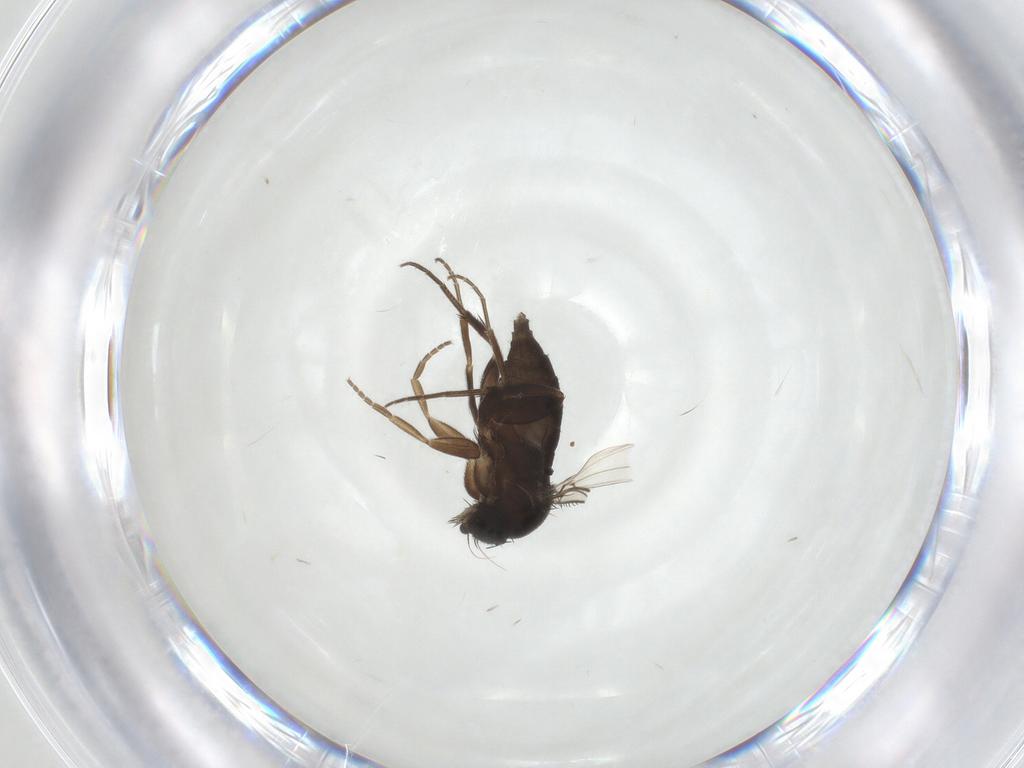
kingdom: Animalia
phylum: Arthropoda
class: Insecta
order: Diptera
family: Phoridae
